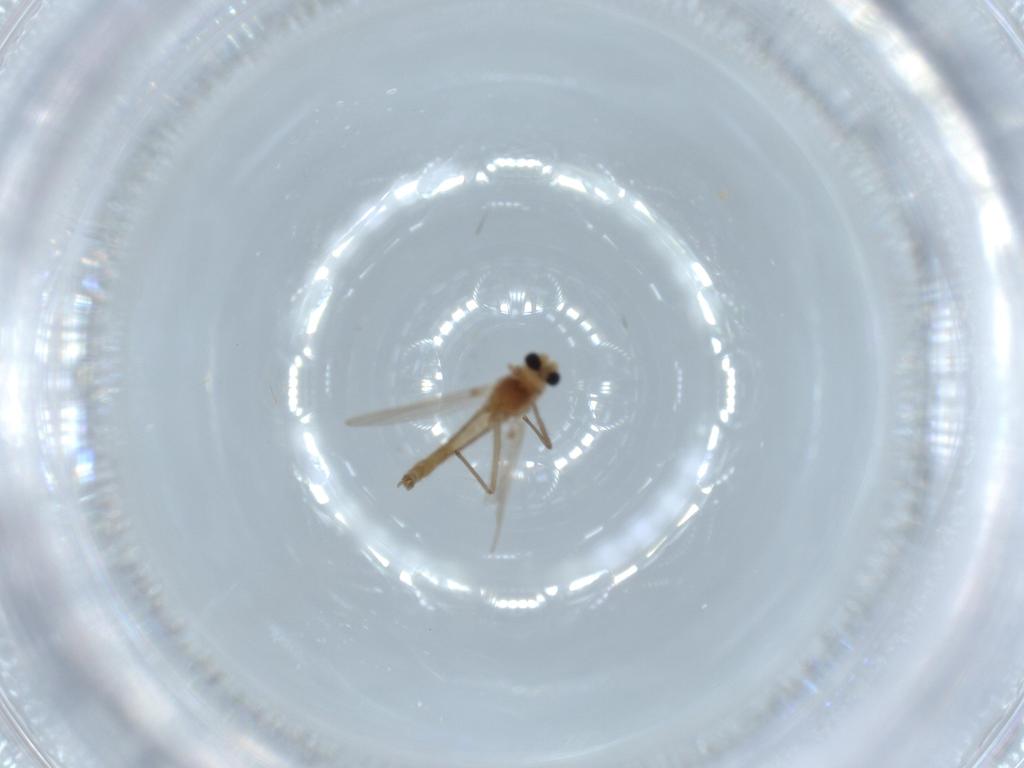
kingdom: Animalia
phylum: Arthropoda
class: Insecta
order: Diptera
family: Chironomidae
